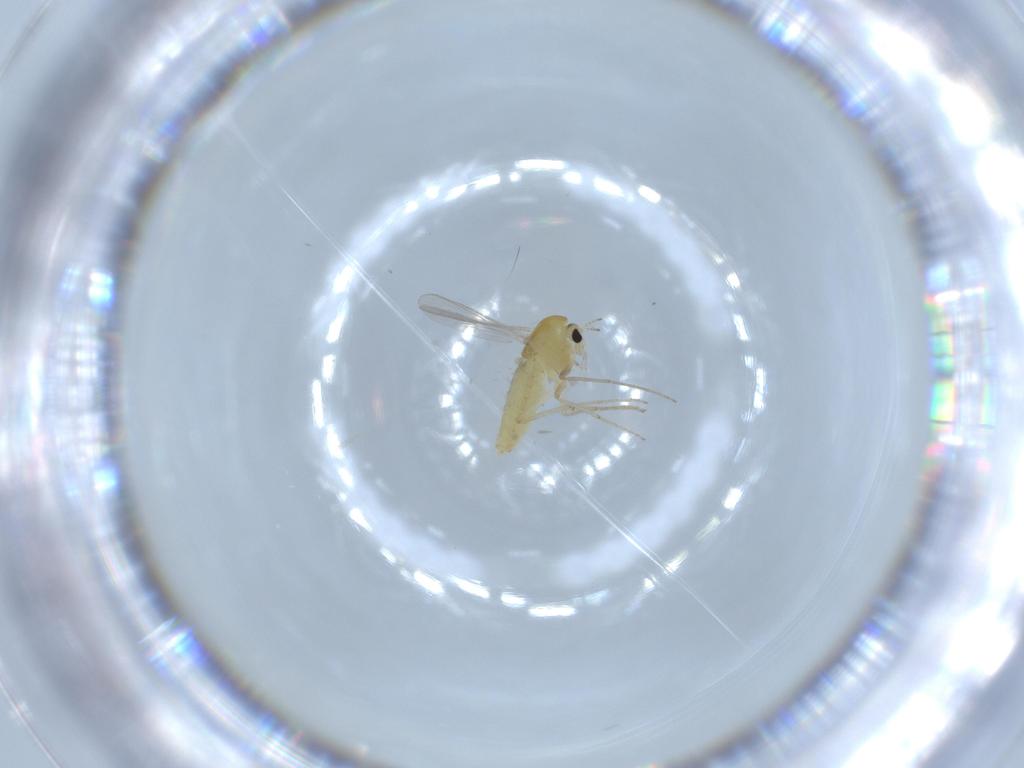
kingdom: Animalia
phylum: Arthropoda
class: Insecta
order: Diptera
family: Chironomidae
